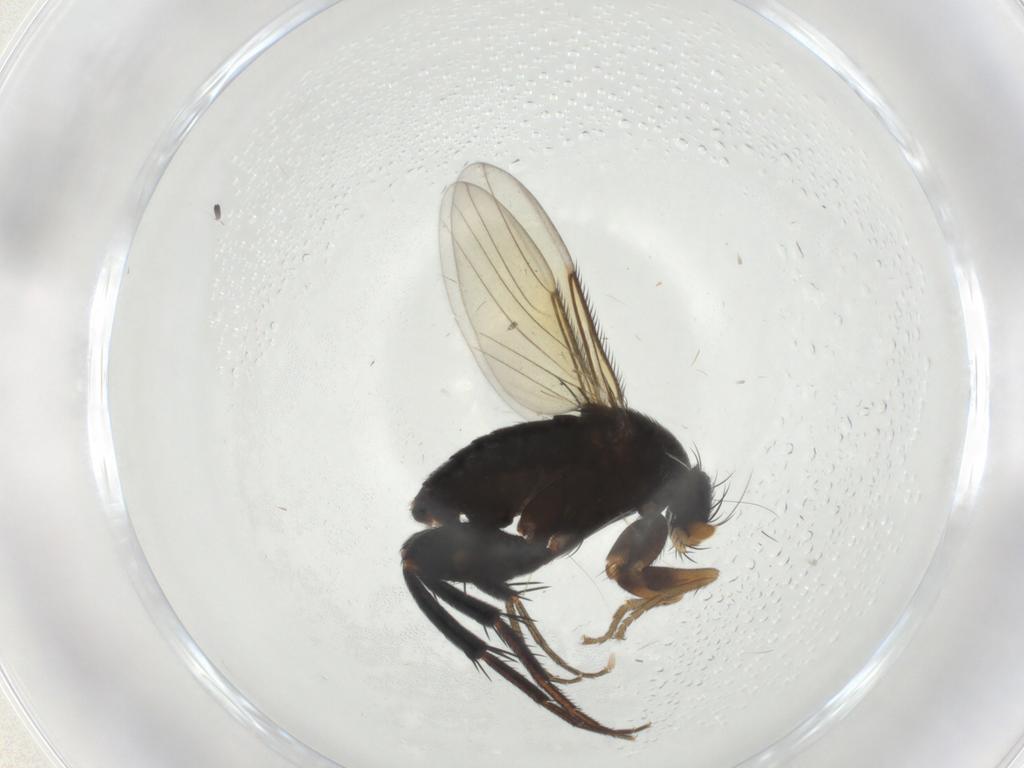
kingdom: Animalia
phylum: Arthropoda
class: Insecta
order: Diptera
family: Phoridae
